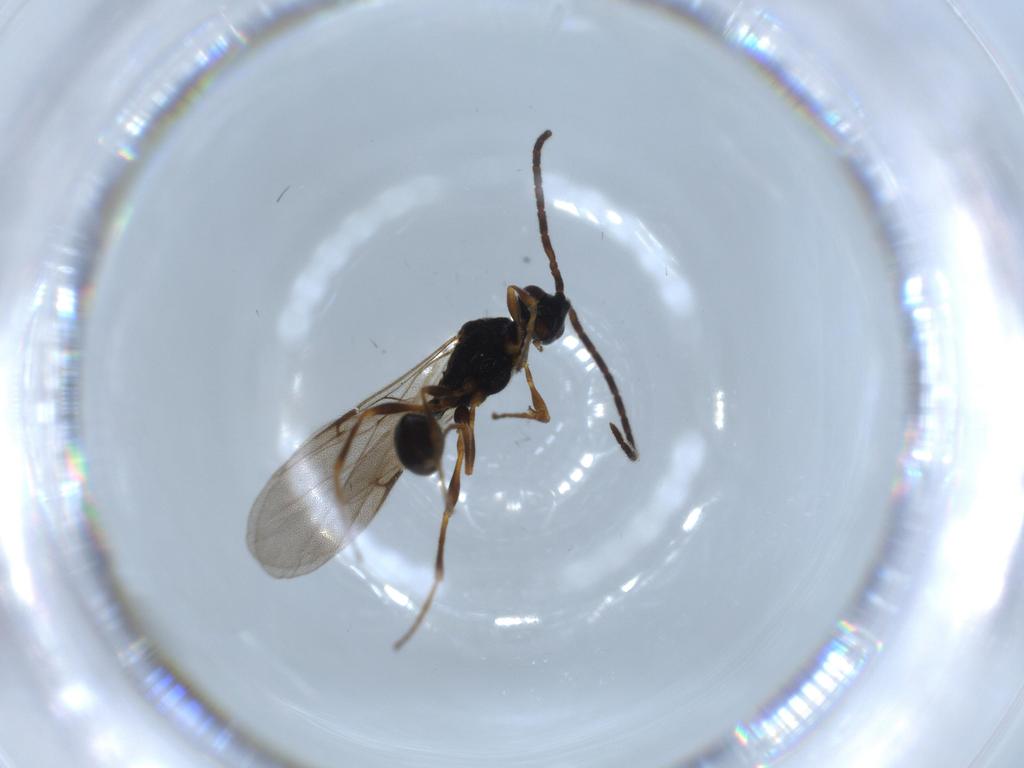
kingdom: Animalia
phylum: Arthropoda
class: Insecta
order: Hymenoptera
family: Diapriidae
